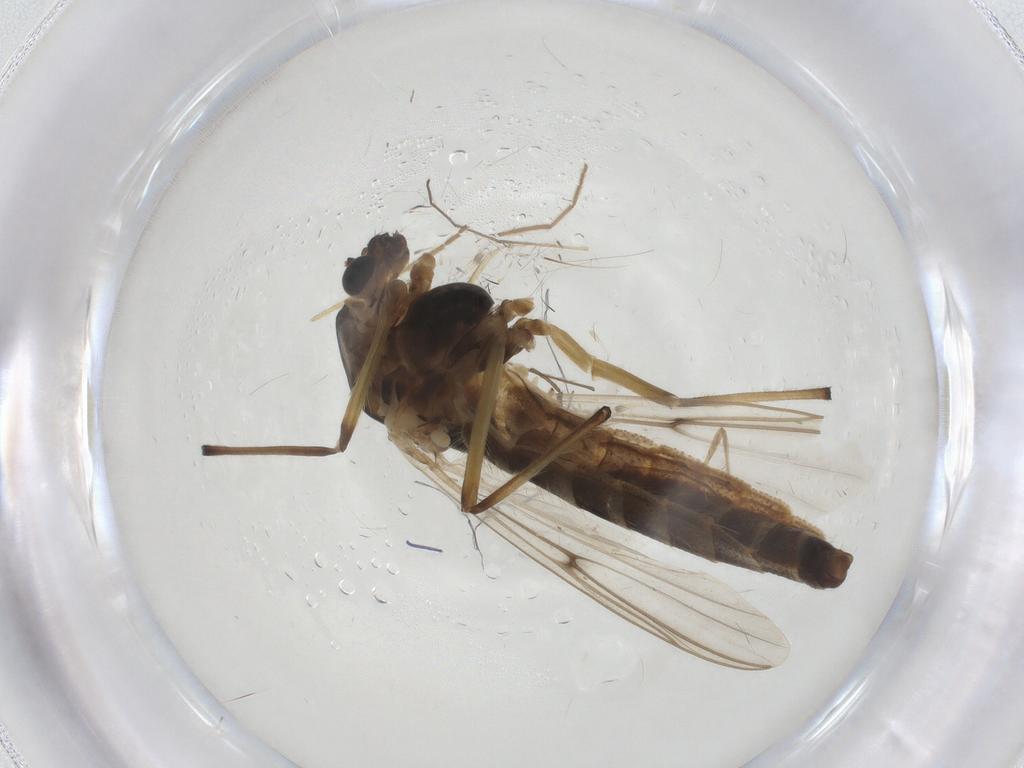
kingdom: Animalia
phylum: Arthropoda
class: Insecta
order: Diptera
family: Chironomidae
